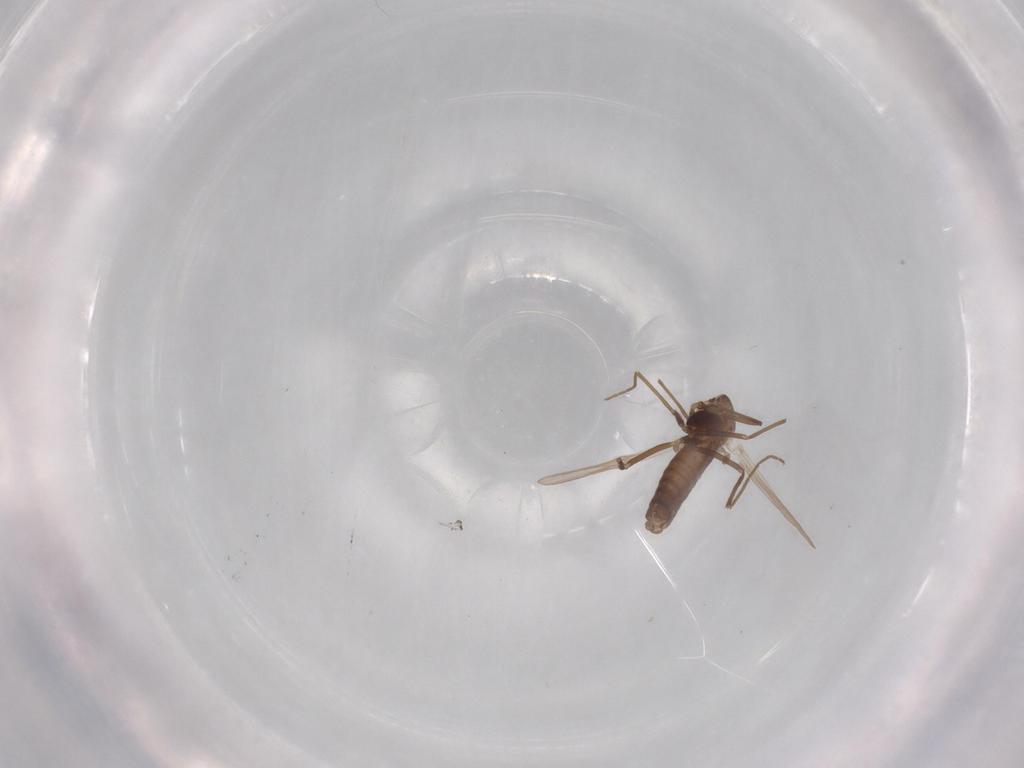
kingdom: Animalia
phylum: Arthropoda
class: Insecta
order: Diptera
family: Chironomidae
